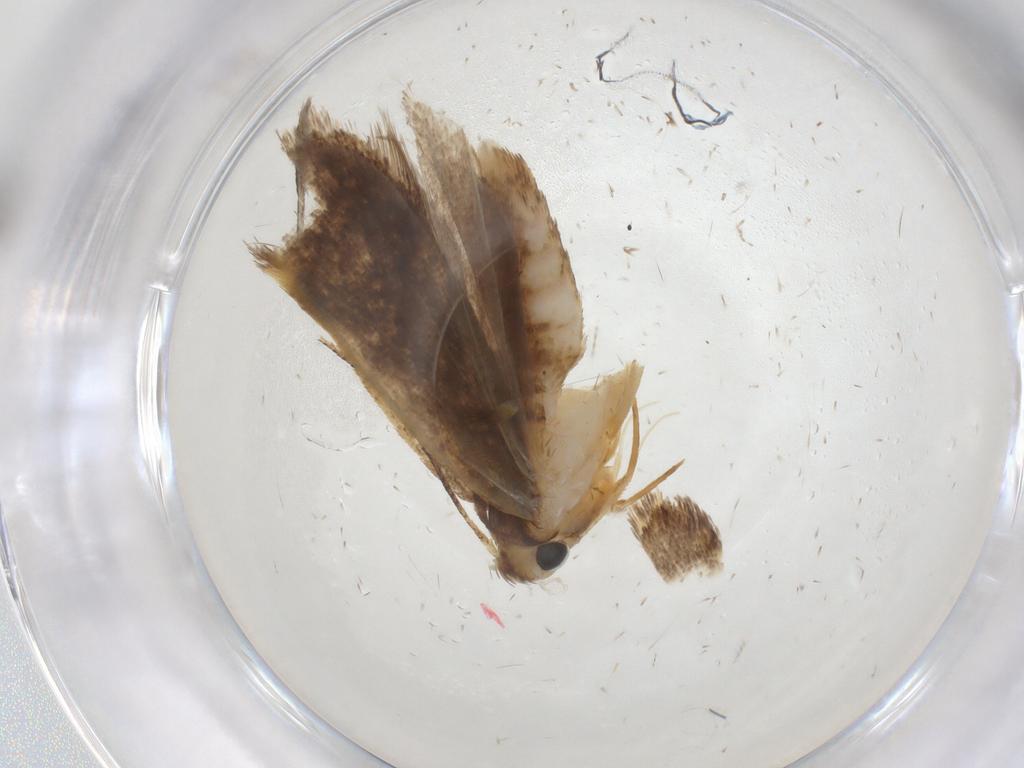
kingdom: Animalia
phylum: Arthropoda
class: Insecta
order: Lepidoptera
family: Gelechiidae
